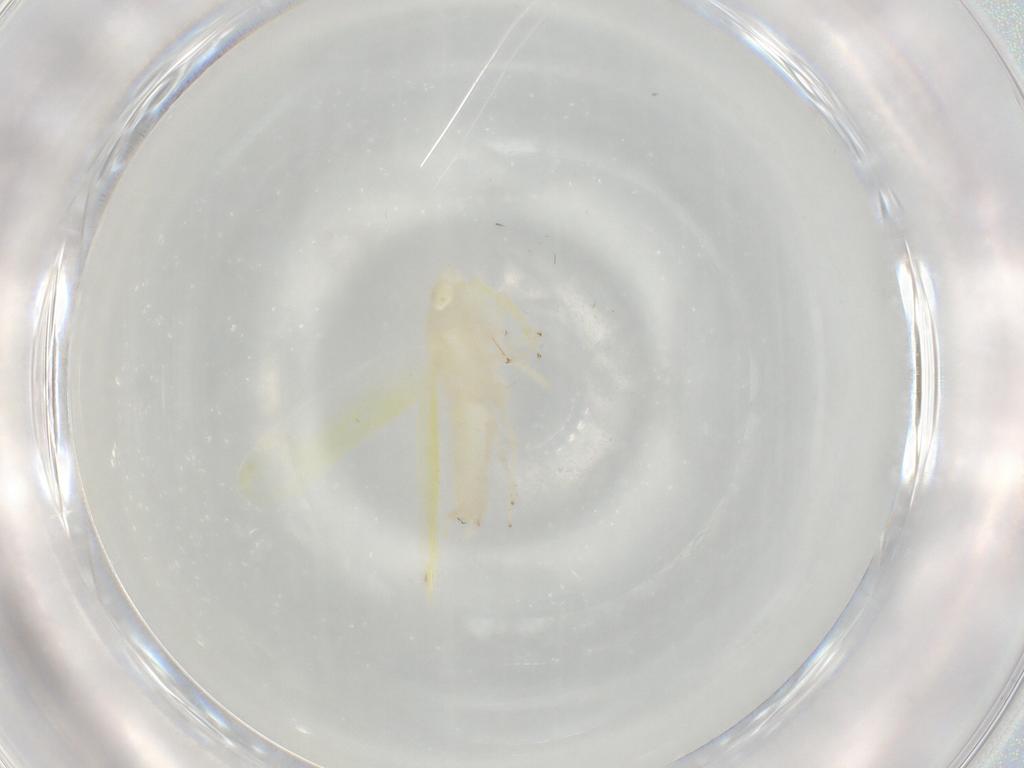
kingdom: Animalia
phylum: Arthropoda
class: Insecta
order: Hemiptera
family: Cicadellidae
